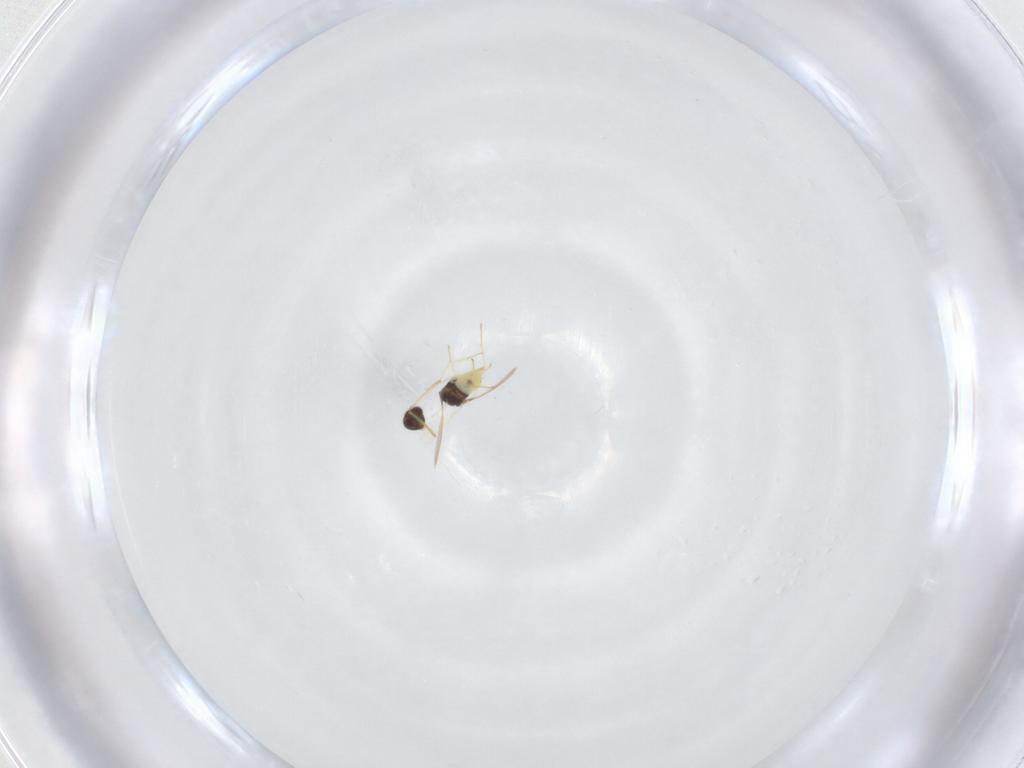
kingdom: Animalia
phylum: Arthropoda
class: Insecta
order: Hymenoptera
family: Aphelinidae
